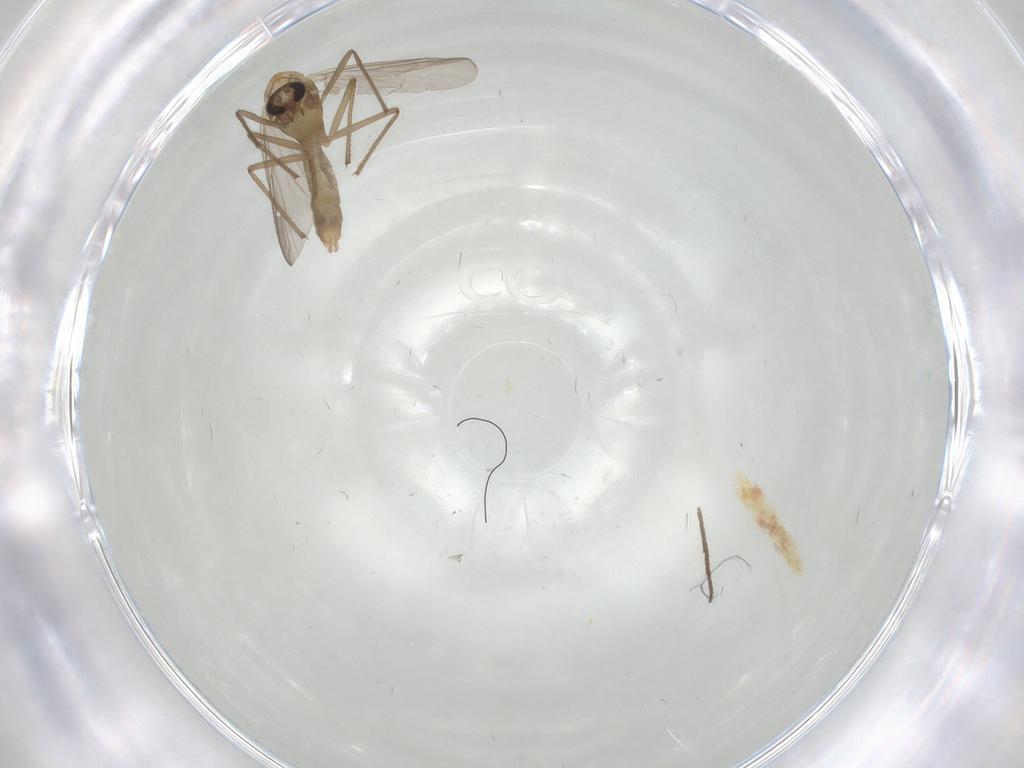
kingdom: Animalia
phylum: Arthropoda
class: Insecta
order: Diptera
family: Chironomidae
